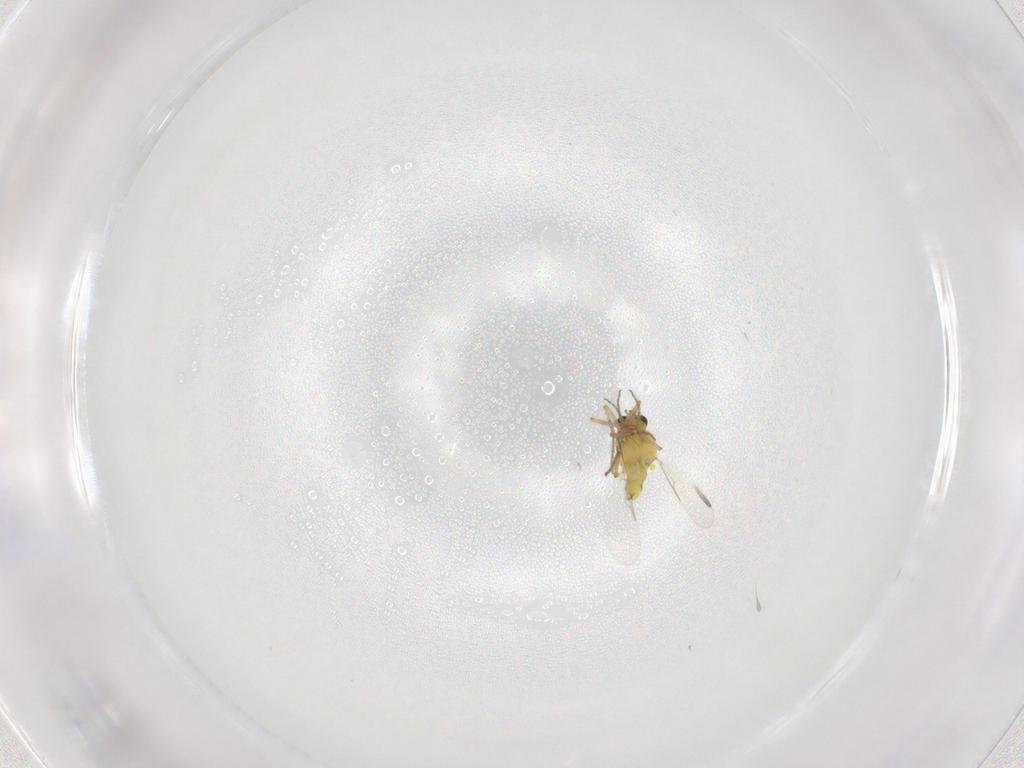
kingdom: Animalia
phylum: Arthropoda
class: Insecta
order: Diptera
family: Ceratopogonidae
